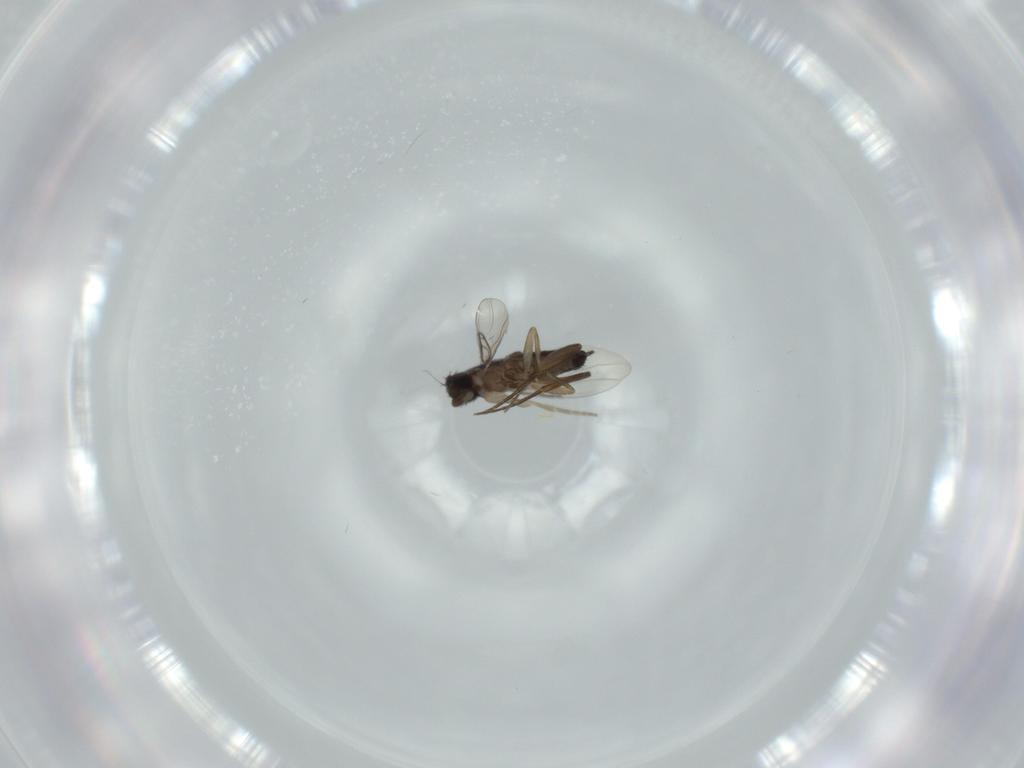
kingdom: Animalia
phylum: Arthropoda
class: Insecta
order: Diptera
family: Phoridae
